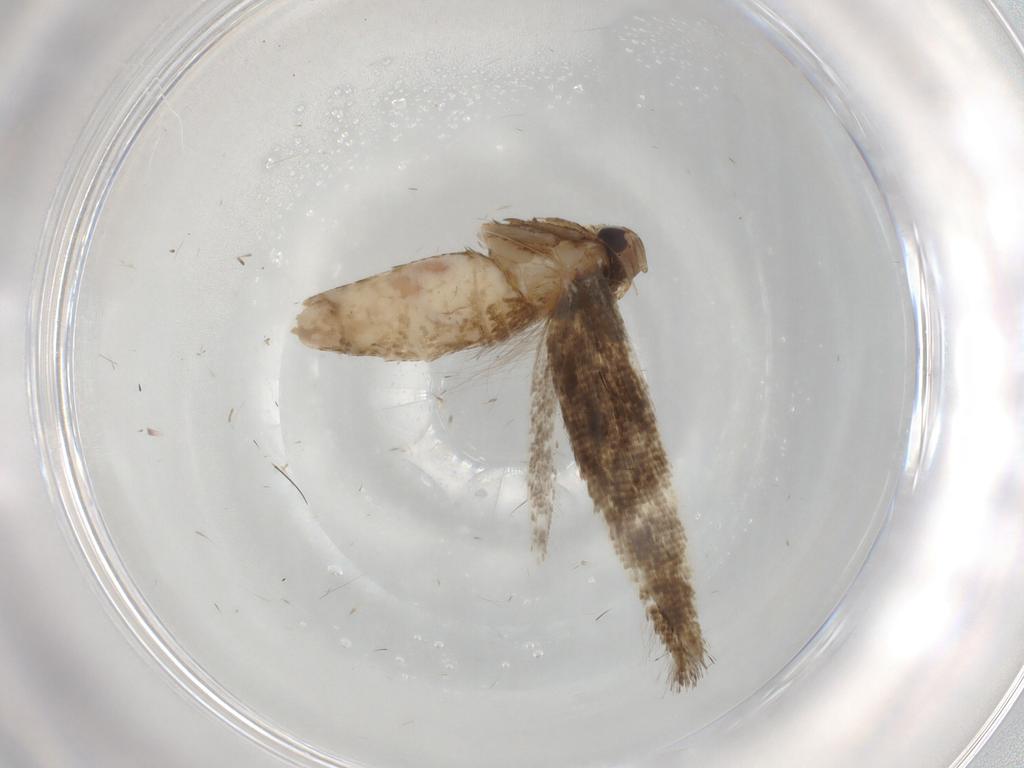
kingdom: Animalia
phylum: Arthropoda
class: Insecta
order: Lepidoptera
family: Cosmopterigidae
